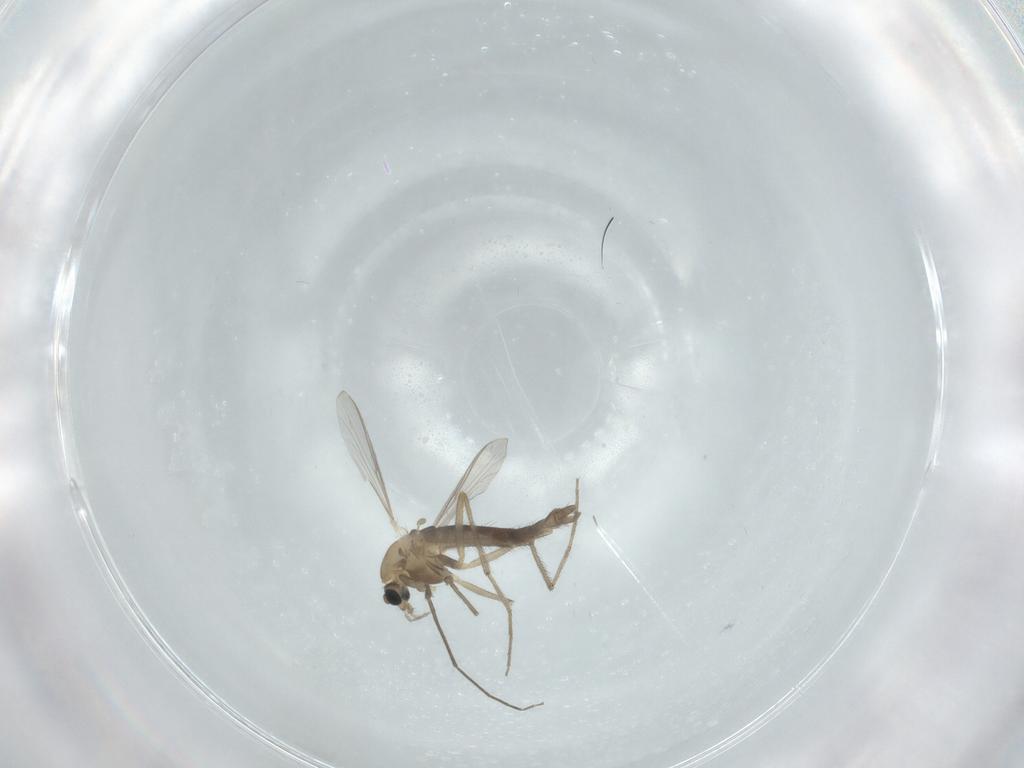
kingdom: Animalia
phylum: Arthropoda
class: Insecta
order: Diptera
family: Chironomidae
